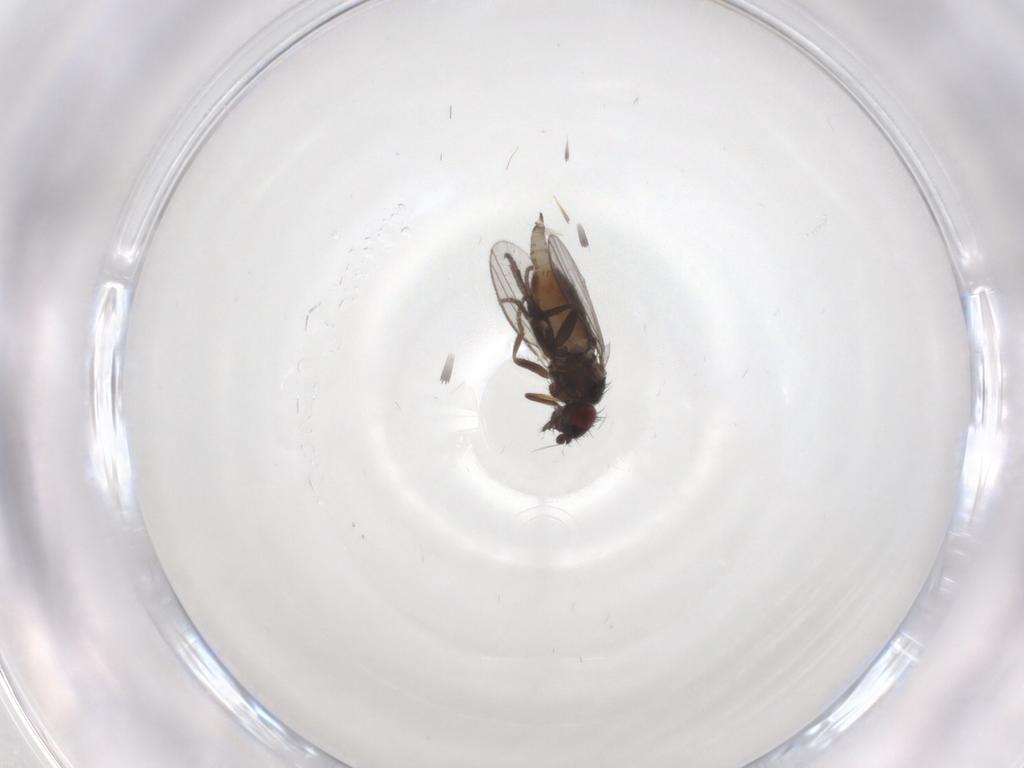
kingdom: Animalia
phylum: Arthropoda
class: Insecta
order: Diptera
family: Milichiidae
